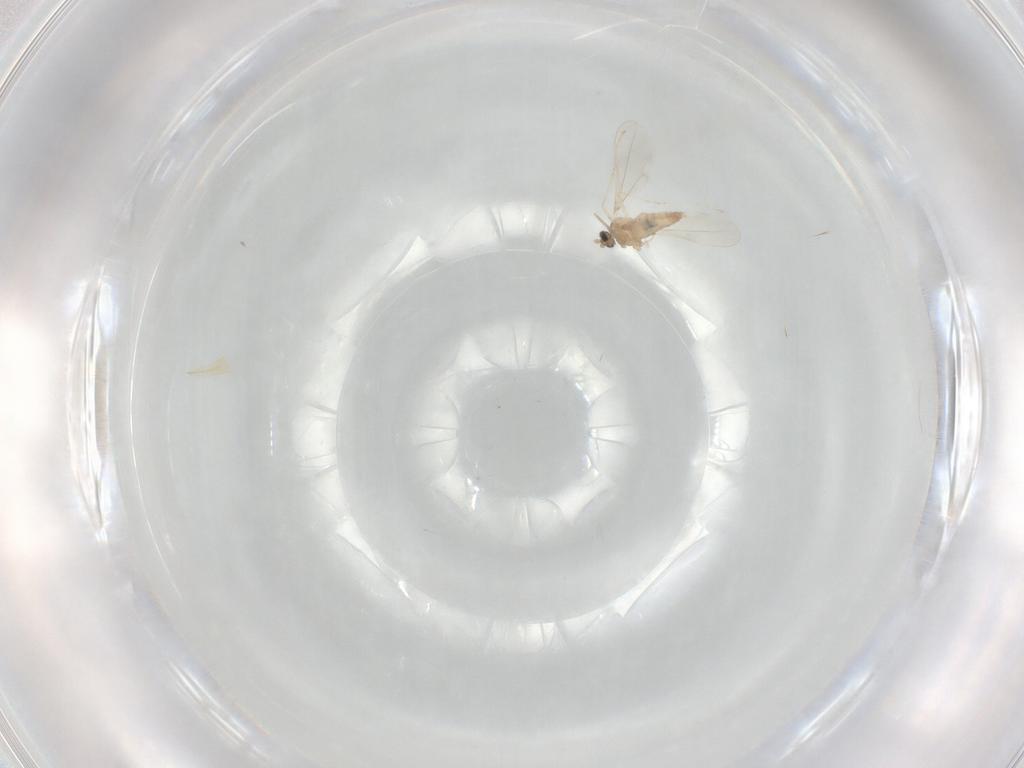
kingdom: Animalia
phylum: Arthropoda
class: Insecta
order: Diptera
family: Cecidomyiidae
